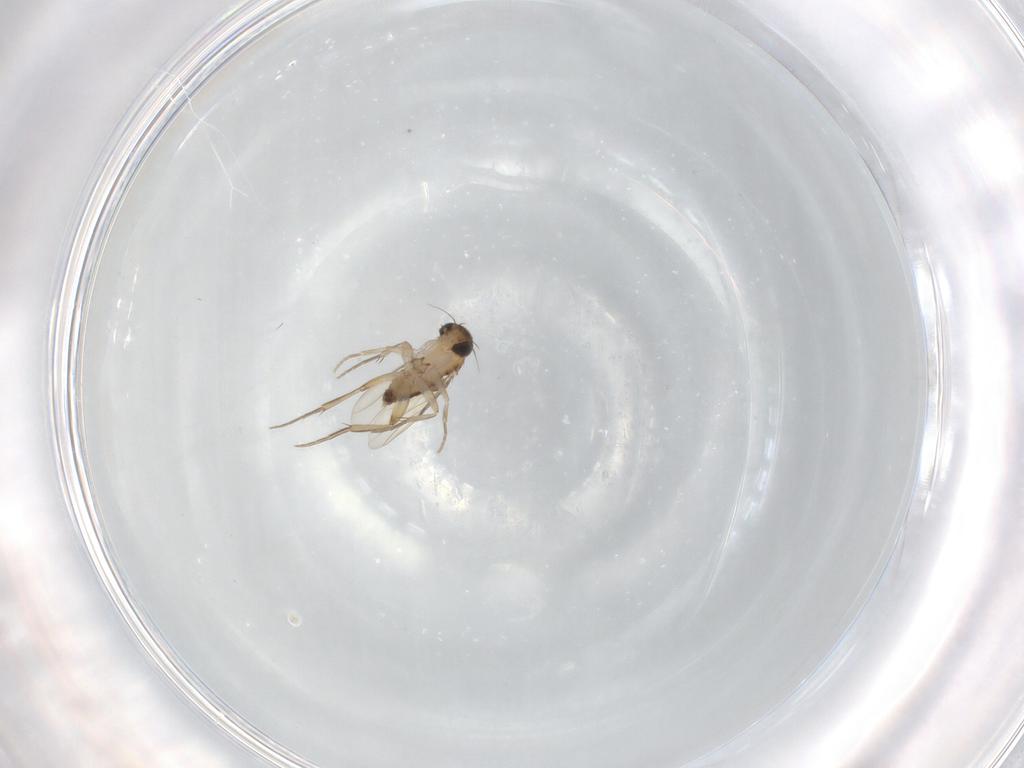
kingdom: Animalia
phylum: Arthropoda
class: Insecta
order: Diptera
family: Phoridae
